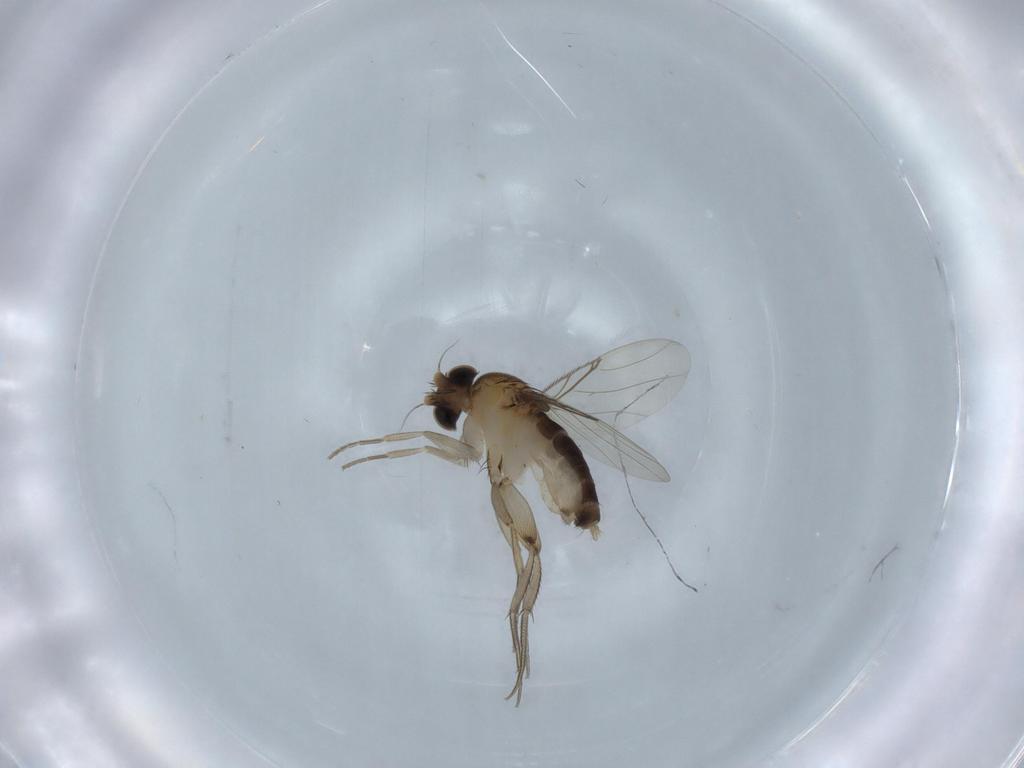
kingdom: Animalia
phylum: Arthropoda
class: Insecta
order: Diptera
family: Phoridae
